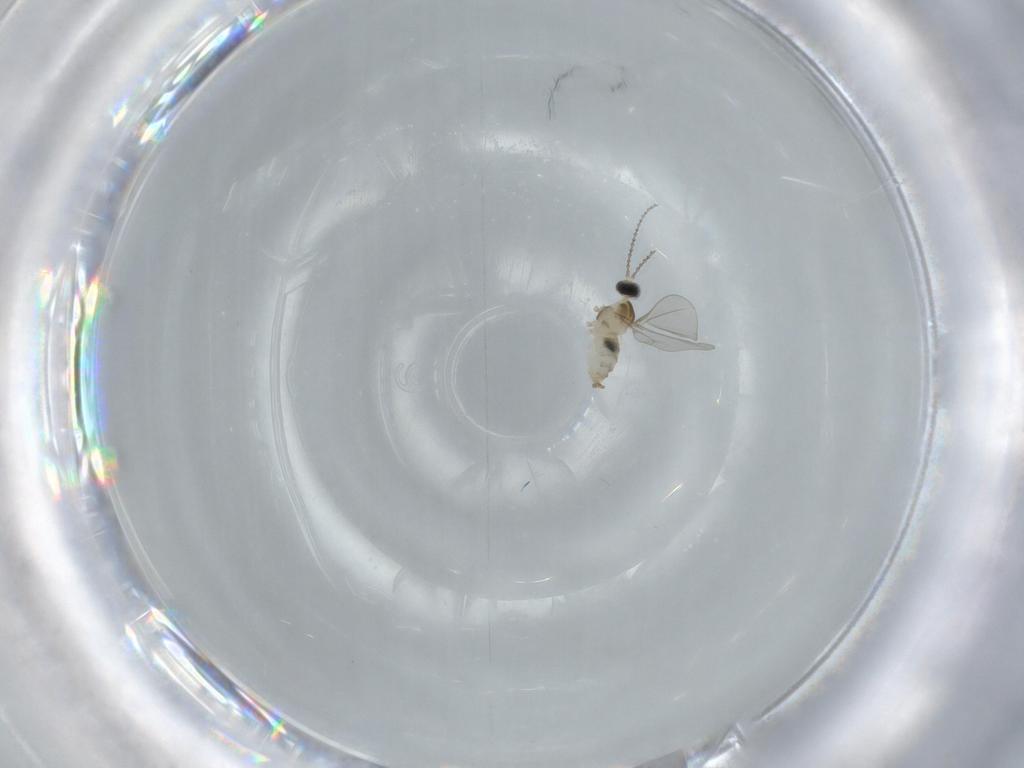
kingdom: Animalia
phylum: Arthropoda
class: Insecta
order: Diptera
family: Cecidomyiidae
